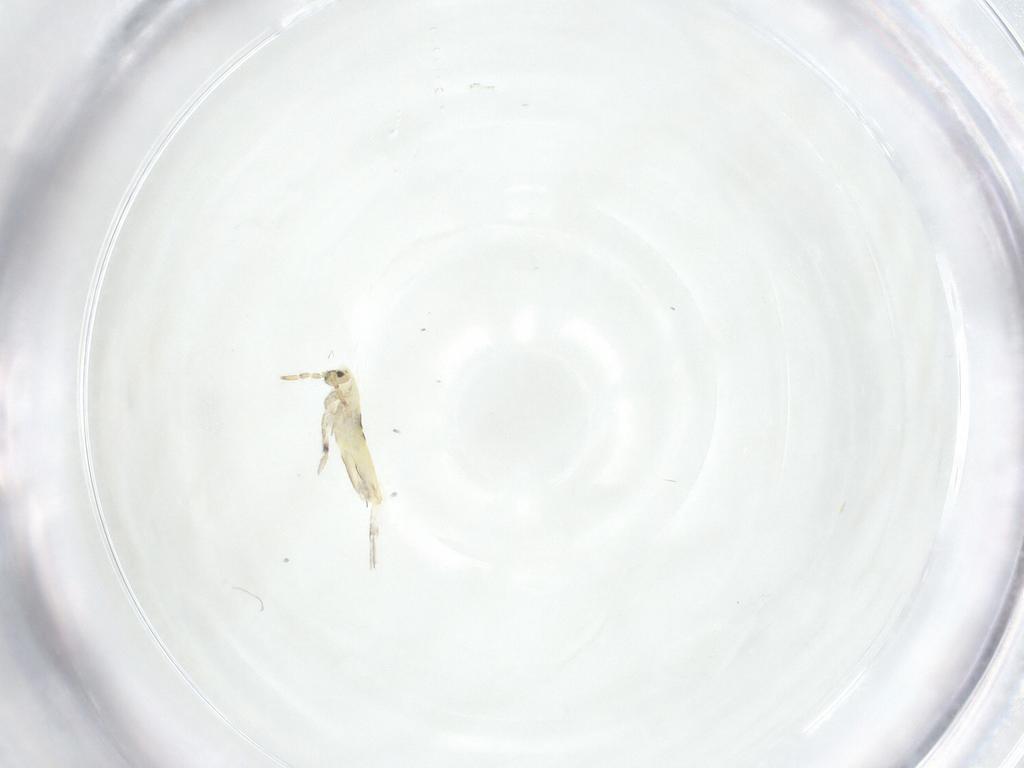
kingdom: Animalia
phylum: Arthropoda
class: Collembola
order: Entomobryomorpha
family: Entomobryidae
